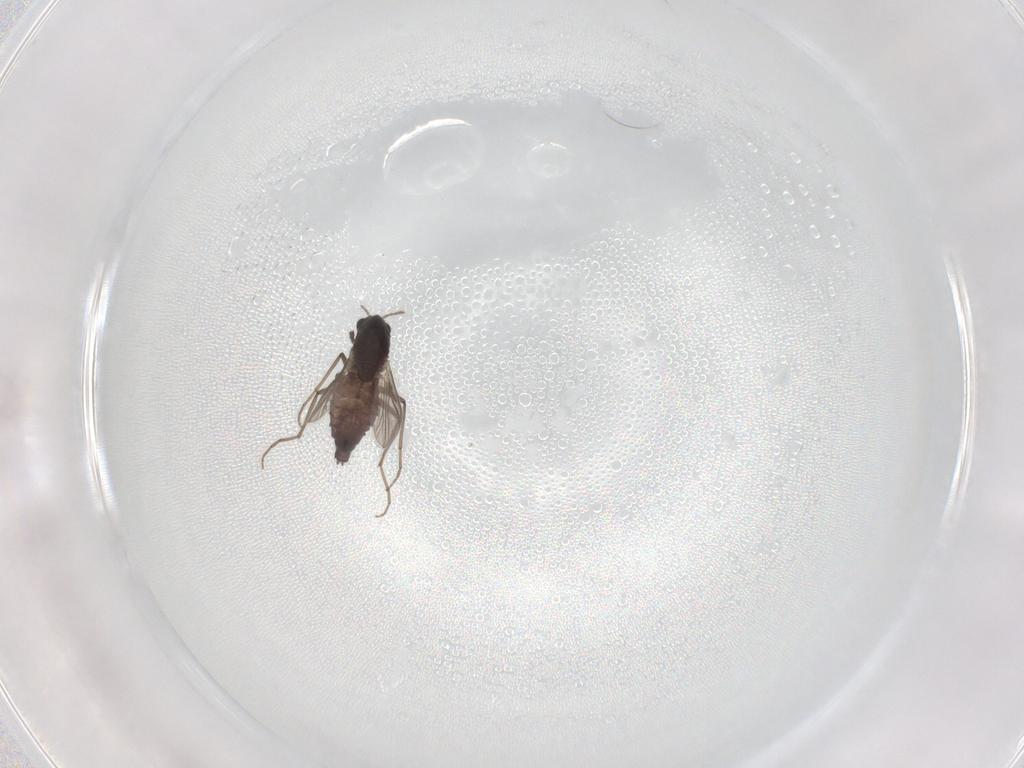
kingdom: Animalia
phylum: Arthropoda
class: Insecta
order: Diptera
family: Chironomidae
